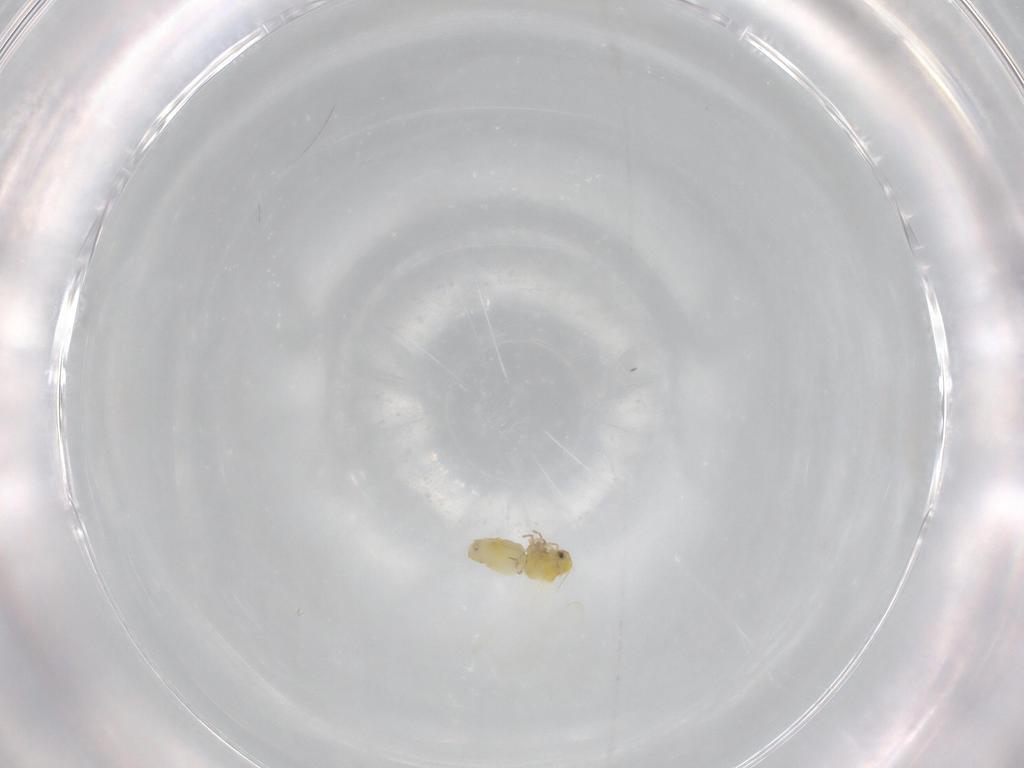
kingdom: Animalia
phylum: Arthropoda
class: Insecta
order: Hemiptera
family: Aleyrodidae
